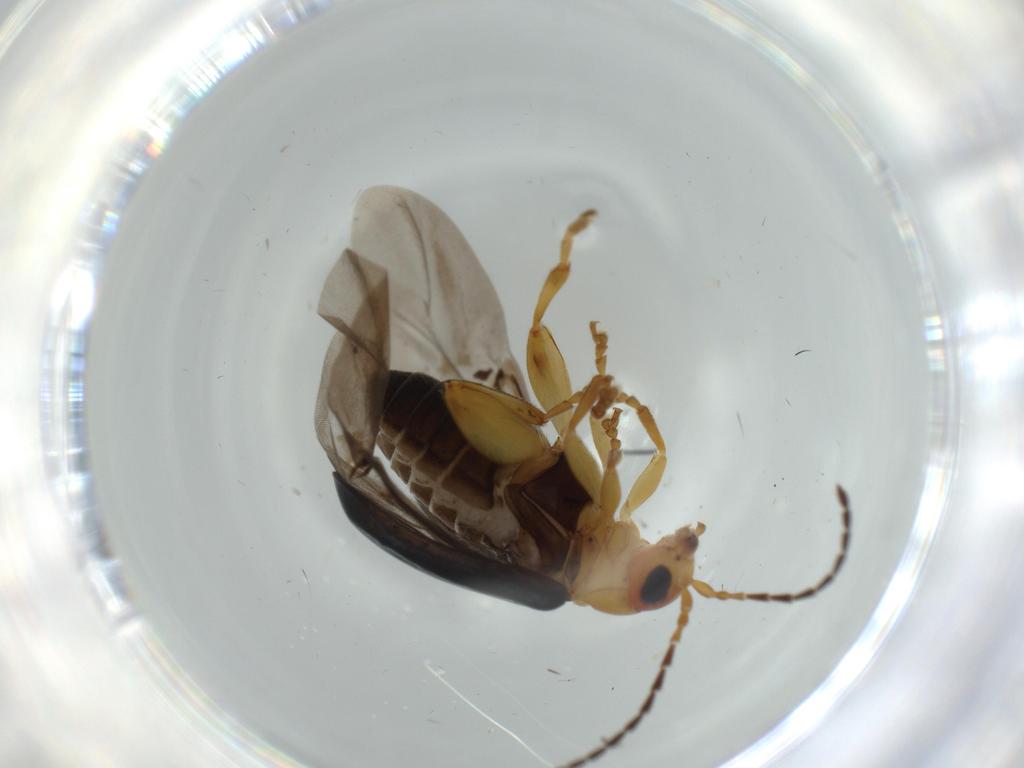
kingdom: Animalia
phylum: Arthropoda
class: Insecta
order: Coleoptera
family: Chrysomelidae
